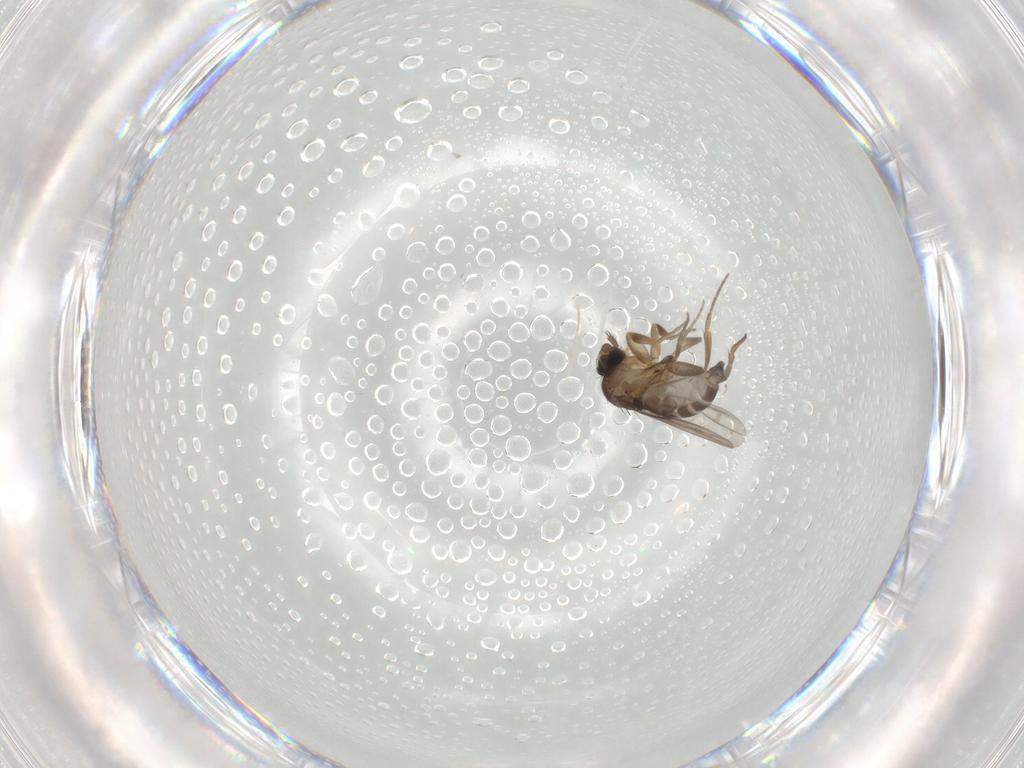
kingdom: Animalia
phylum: Arthropoda
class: Insecta
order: Diptera
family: Phoridae
